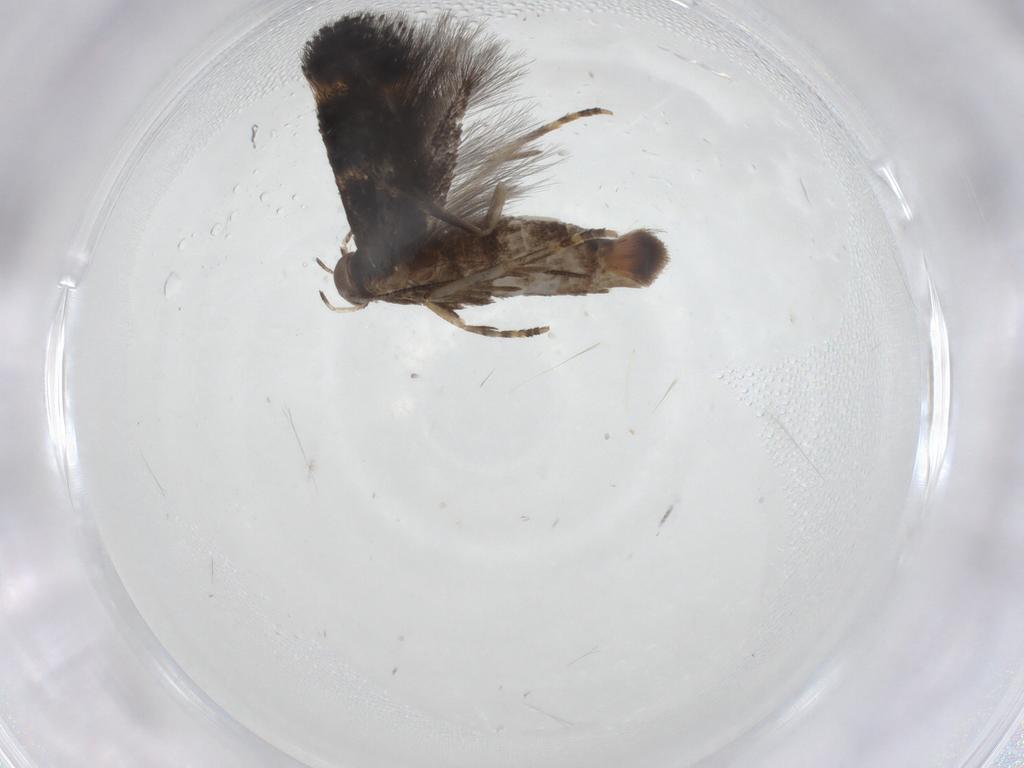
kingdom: Animalia
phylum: Arthropoda
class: Insecta
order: Lepidoptera
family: Elachistidae
